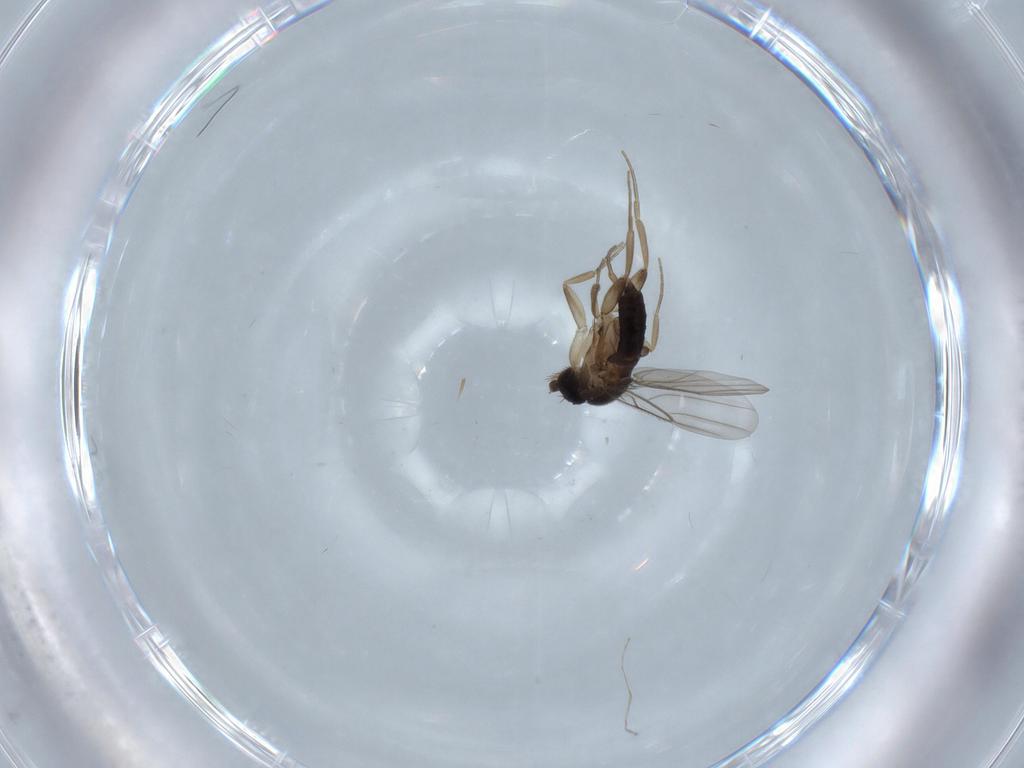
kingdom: Animalia
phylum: Arthropoda
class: Insecta
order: Diptera
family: Phoridae
